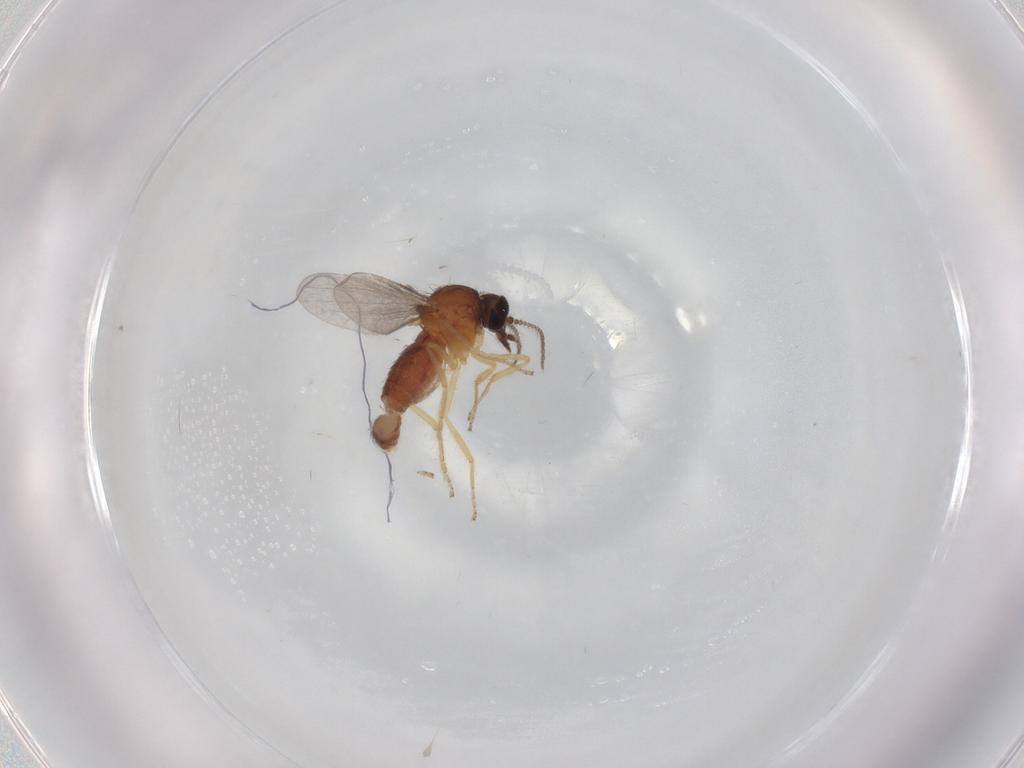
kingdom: Animalia
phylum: Arthropoda
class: Insecta
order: Diptera
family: Ceratopogonidae
